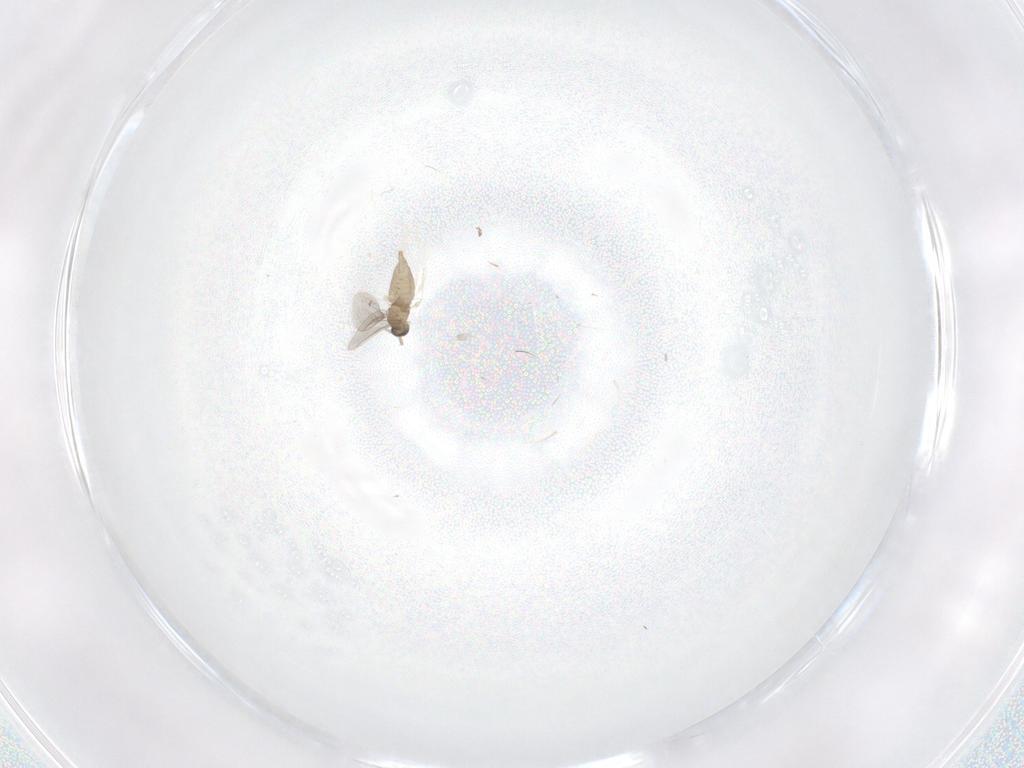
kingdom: Animalia
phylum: Arthropoda
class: Insecta
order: Diptera
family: Cecidomyiidae
